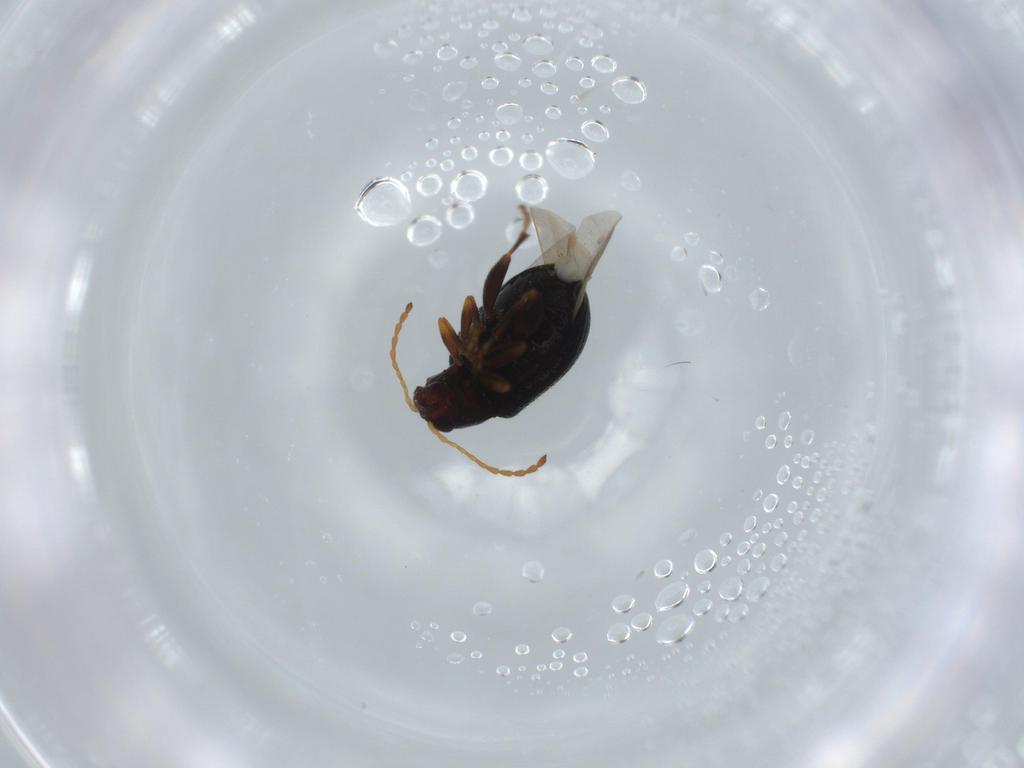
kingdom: Animalia
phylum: Arthropoda
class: Insecta
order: Coleoptera
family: Chrysomelidae
